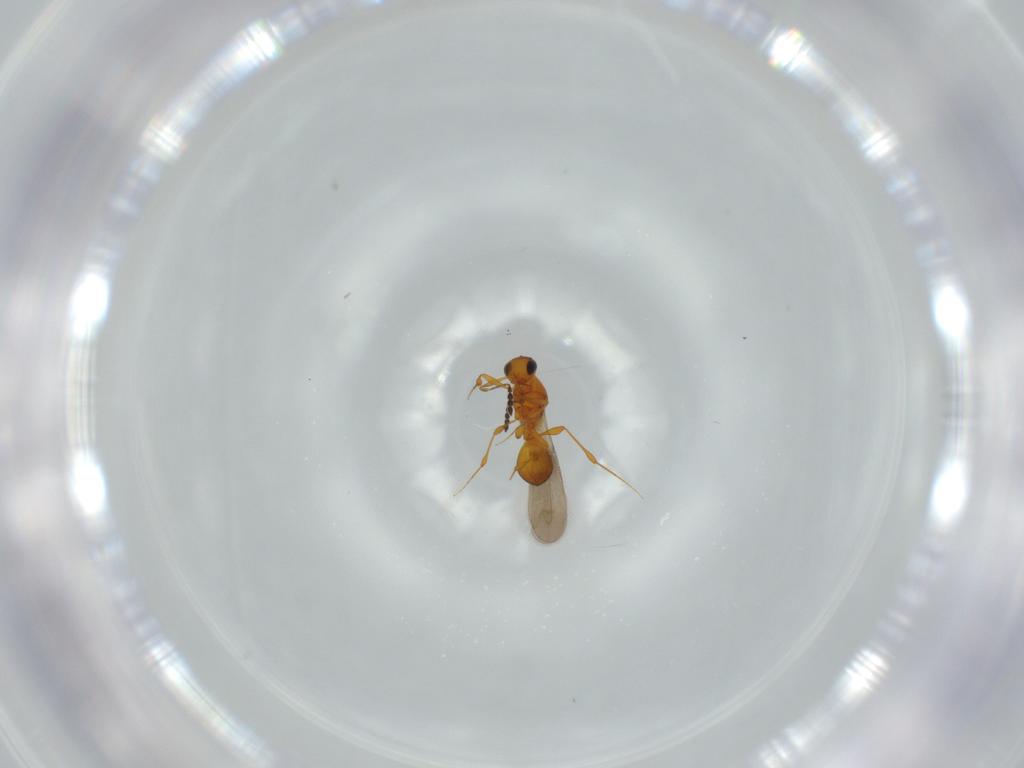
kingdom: Animalia
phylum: Arthropoda
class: Insecta
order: Hymenoptera
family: Platygastridae
